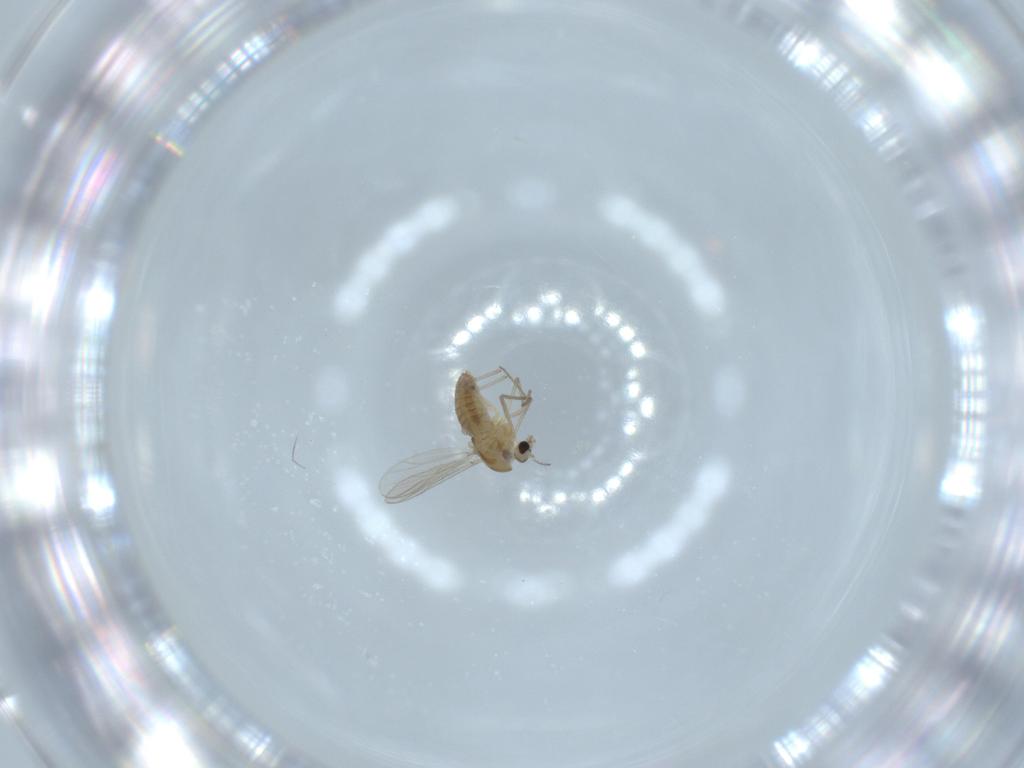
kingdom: Animalia
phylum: Arthropoda
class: Insecta
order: Diptera
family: Chironomidae
